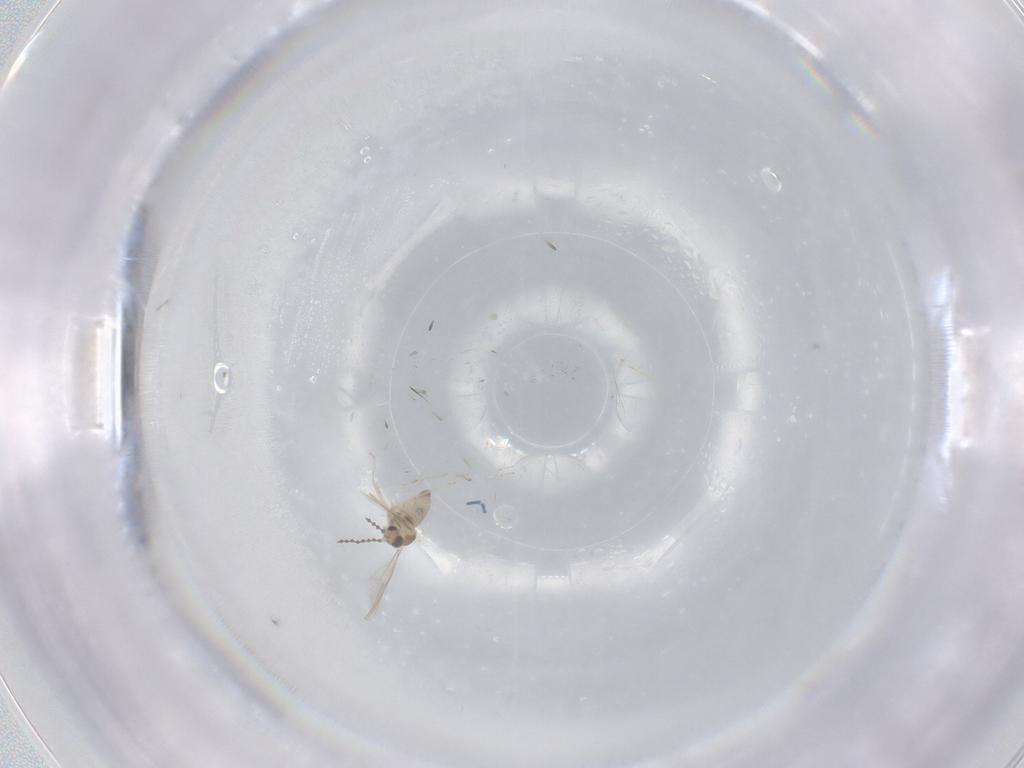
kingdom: Animalia
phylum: Arthropoda
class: Insecta
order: Diptera
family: Cecidomyiidae
